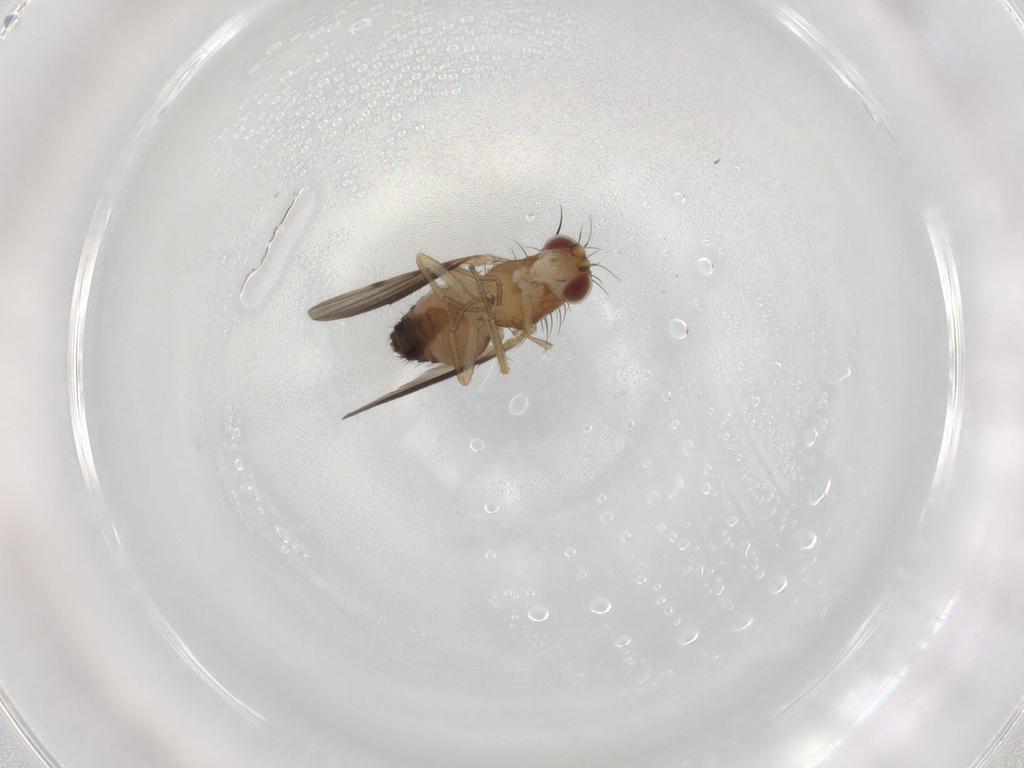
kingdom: Animalia
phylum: Arthropoda
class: Insecta
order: Diptera
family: Heleomyzidae
